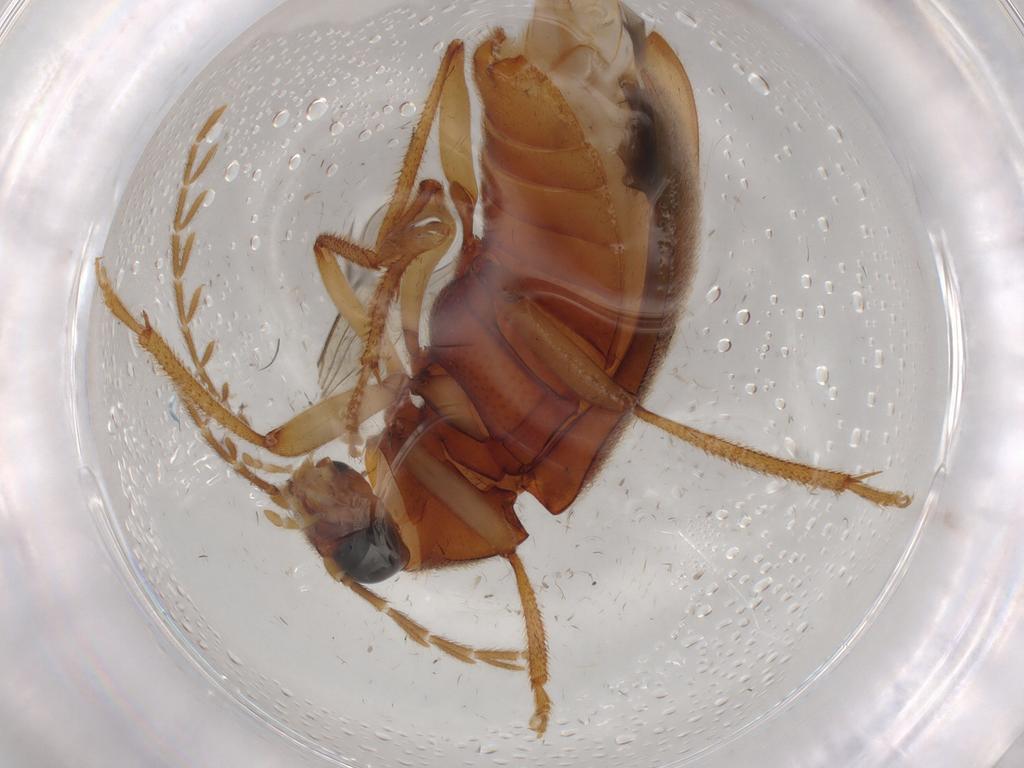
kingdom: Animalia
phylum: Arthropoda
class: Insecta
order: Coleoptera
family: Ptilodactylidae
